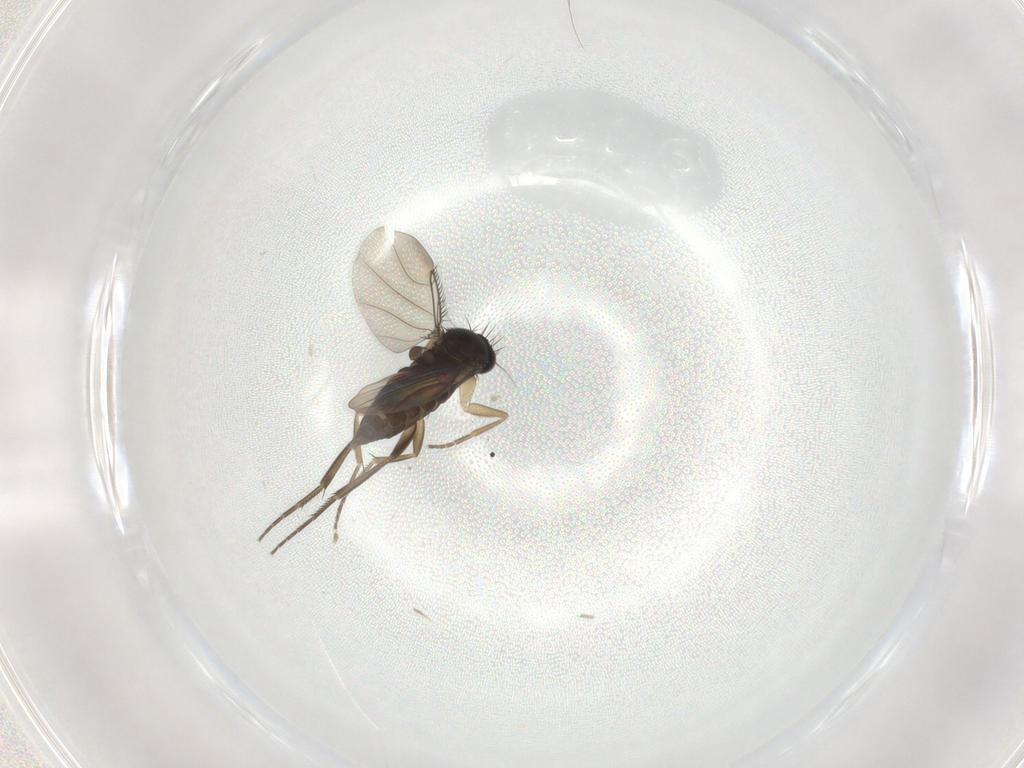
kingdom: Animalia
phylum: Arthropoda
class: Insecta
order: Diptera
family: Phoridae
